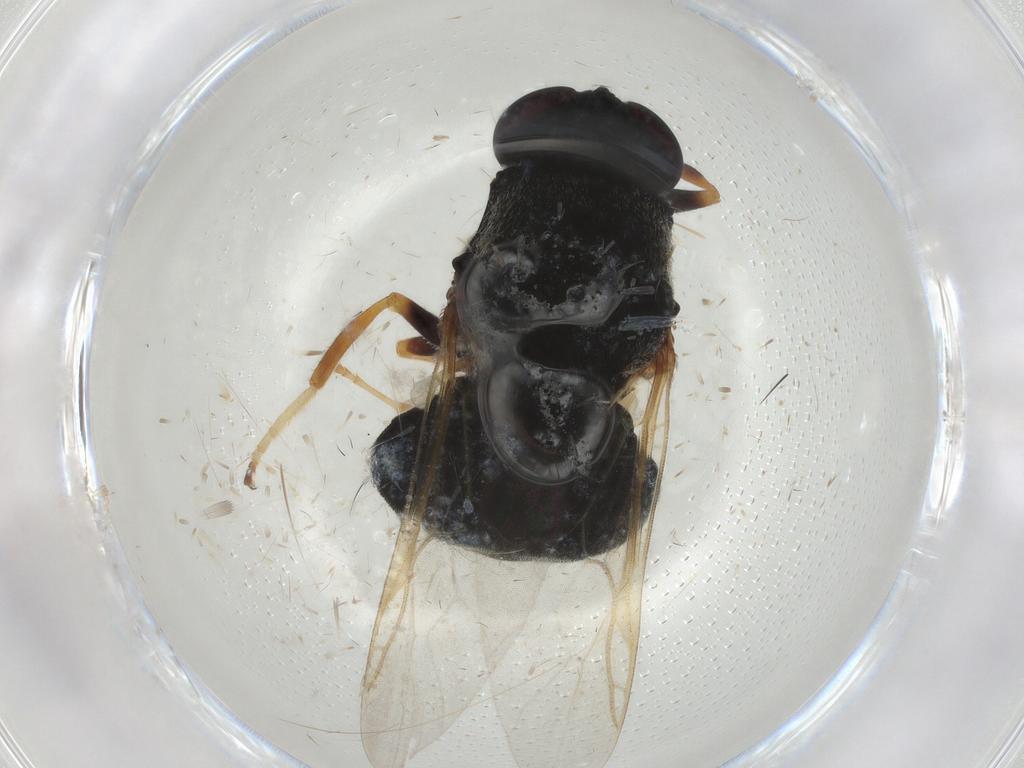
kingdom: Animalia
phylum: Arthropoda
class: Insecta
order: Diptera
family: Stratiomyidae
